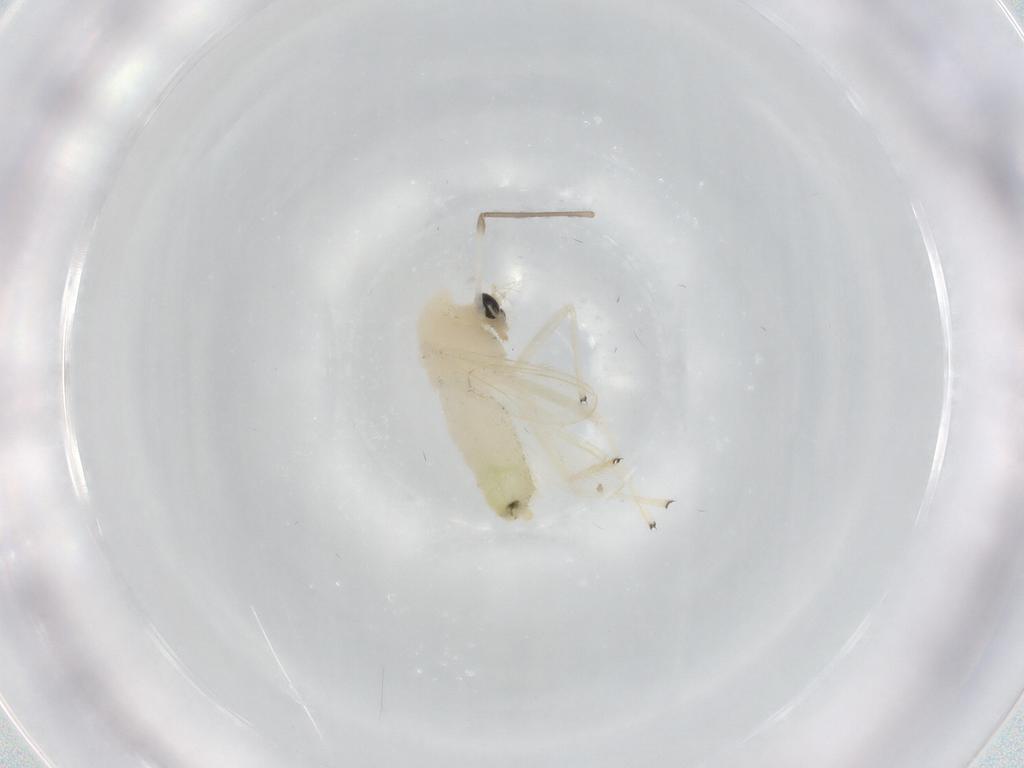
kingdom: Animalia
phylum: Arthropoda
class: Insecta
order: Diptera
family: Chironomidae
